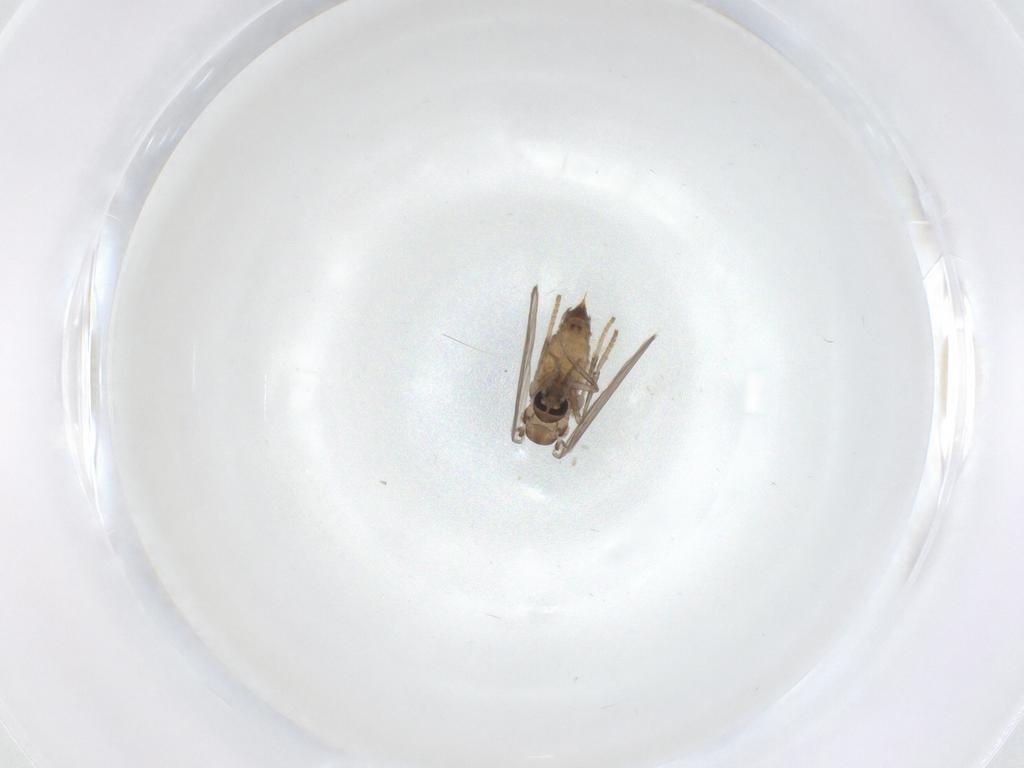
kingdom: Animalia
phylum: Arthropoda
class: Insecta
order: Diptera
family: Psychodidae
